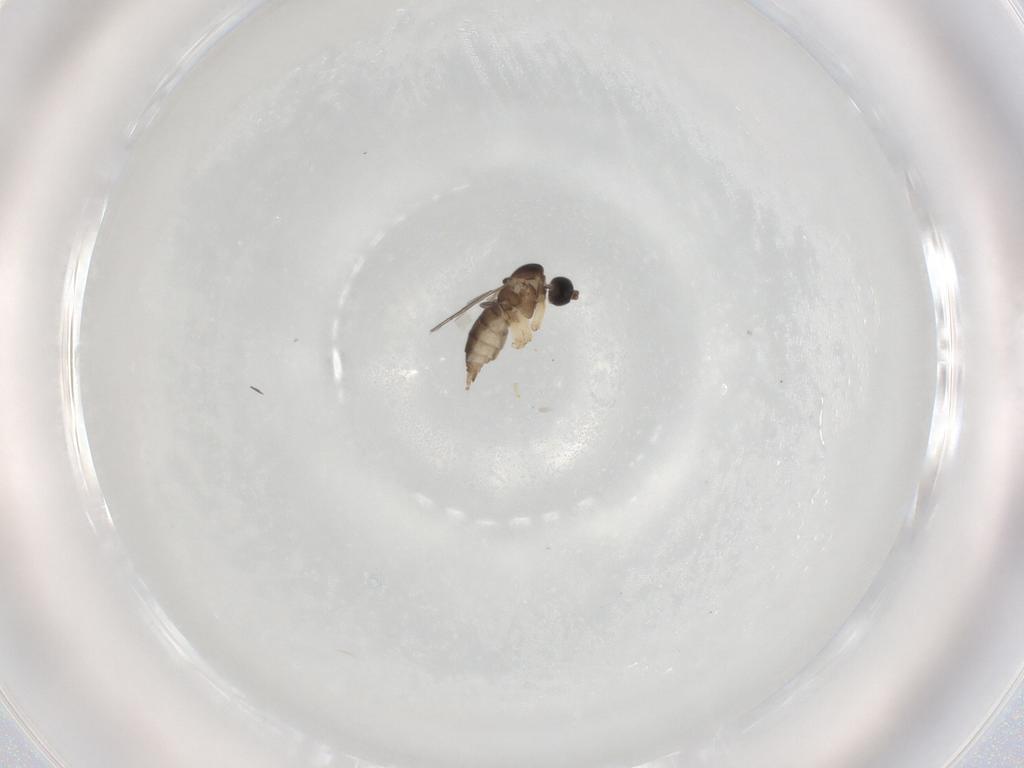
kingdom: Animalia
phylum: Arthropoda
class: Insecta
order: Diptera
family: Sciaridae
